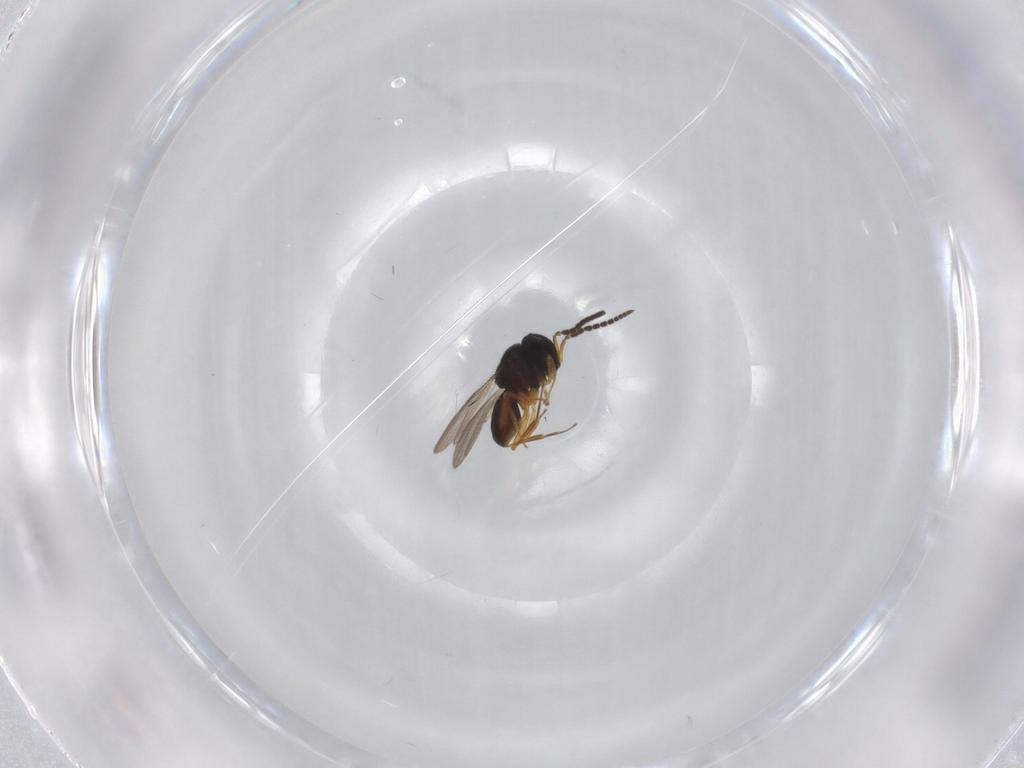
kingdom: Animalia
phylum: Arthropoda
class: Insecta
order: Hymenoptera
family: Scelionidae
